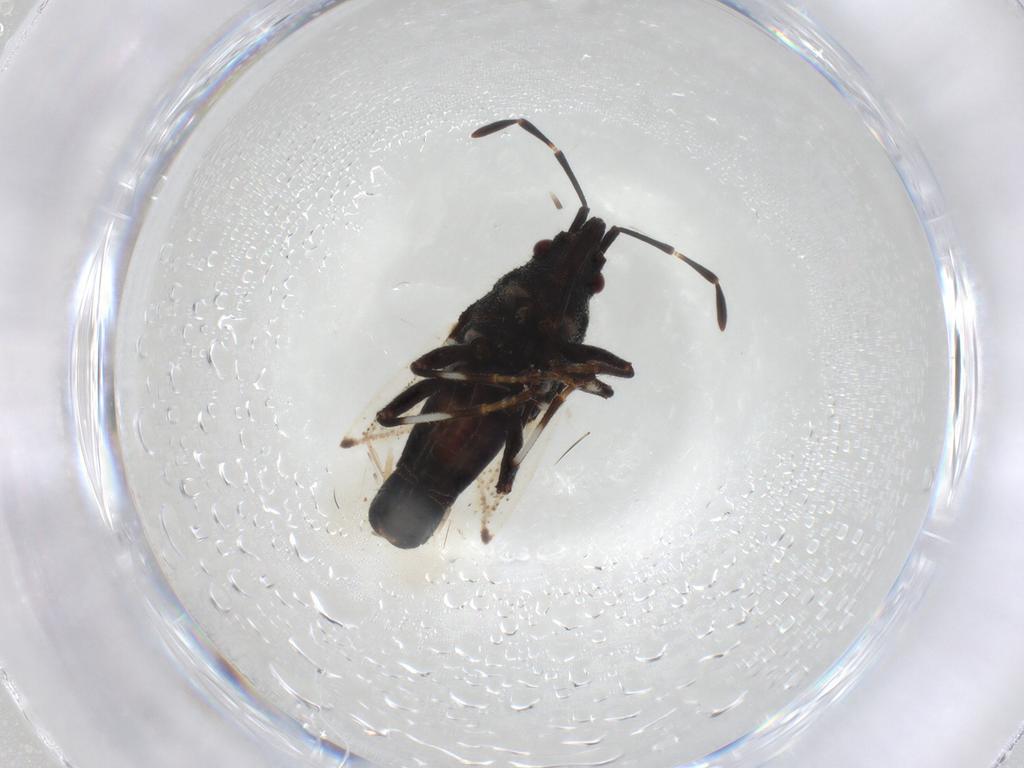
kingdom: Animalia
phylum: Arthropoda
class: Insecta
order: Hemiptera
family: Oxycarenidae
